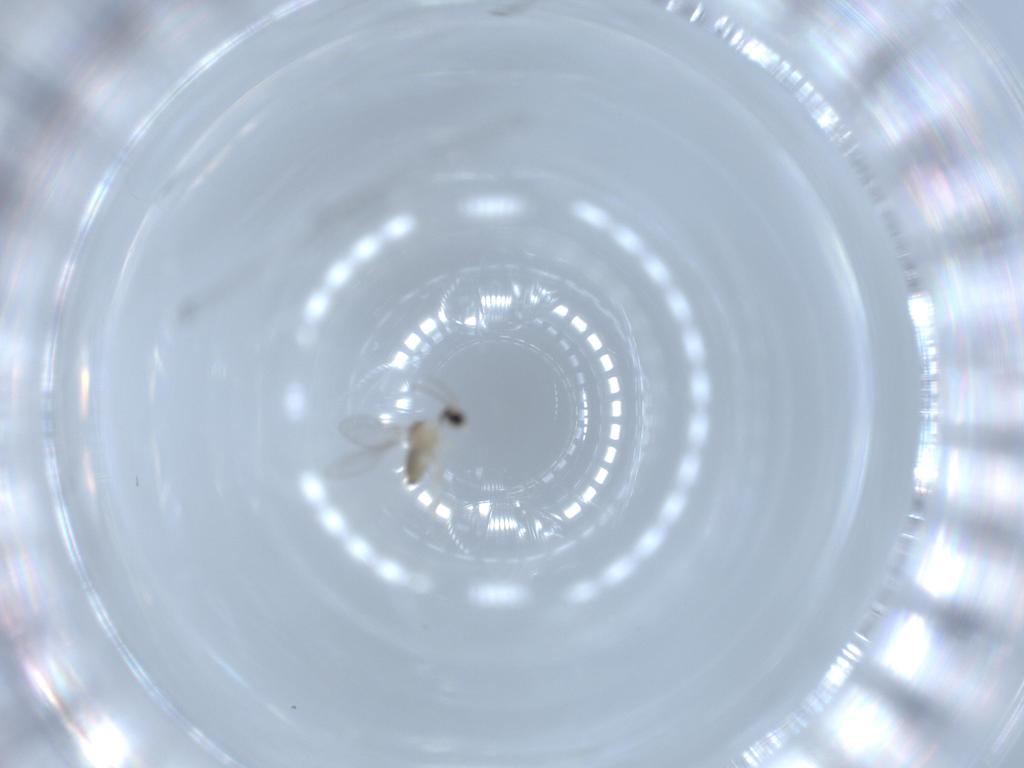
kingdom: Animalia
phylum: Arthropoda
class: Insecta
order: Diptera
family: Cecidomyiidae
